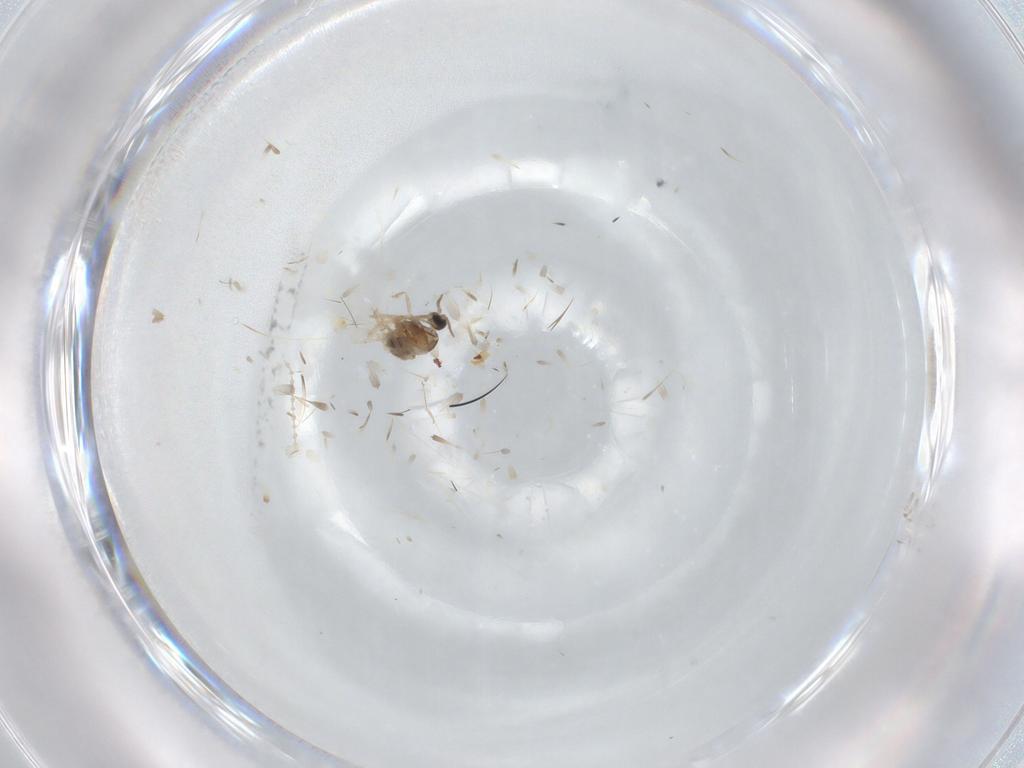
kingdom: Animalia
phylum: Arthropoda
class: Insecta
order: Diptera
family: Cecidomyiidae
